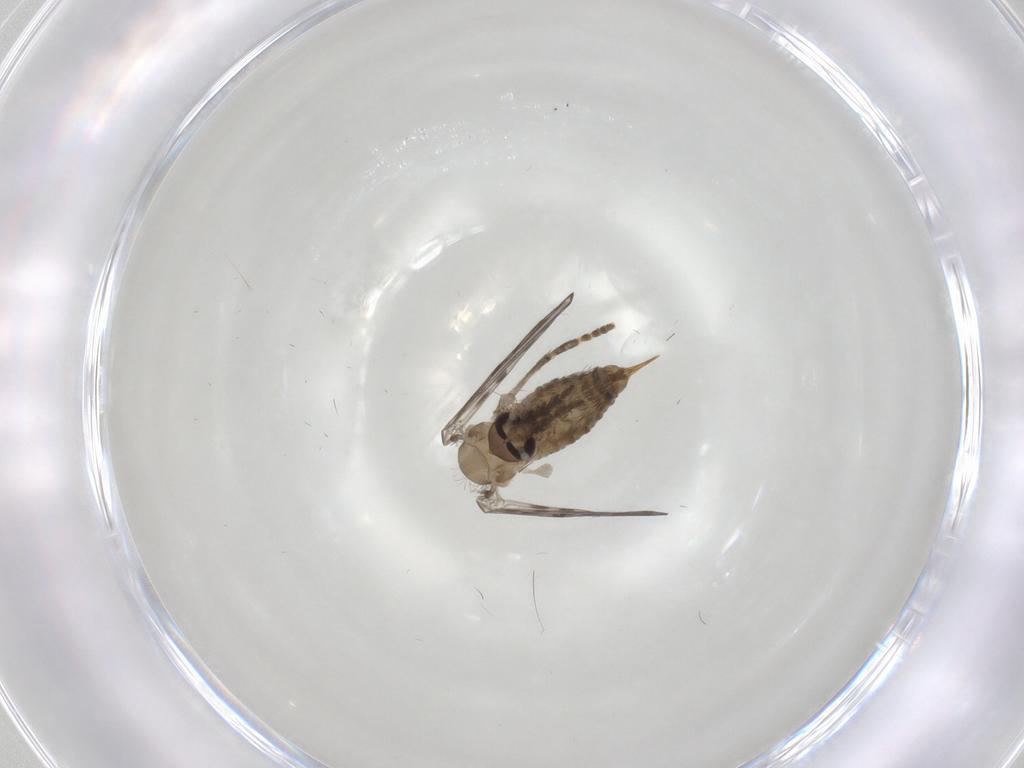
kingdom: Animalia
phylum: Arthropoda
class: Insecta
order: Diptera
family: Psychodidae
